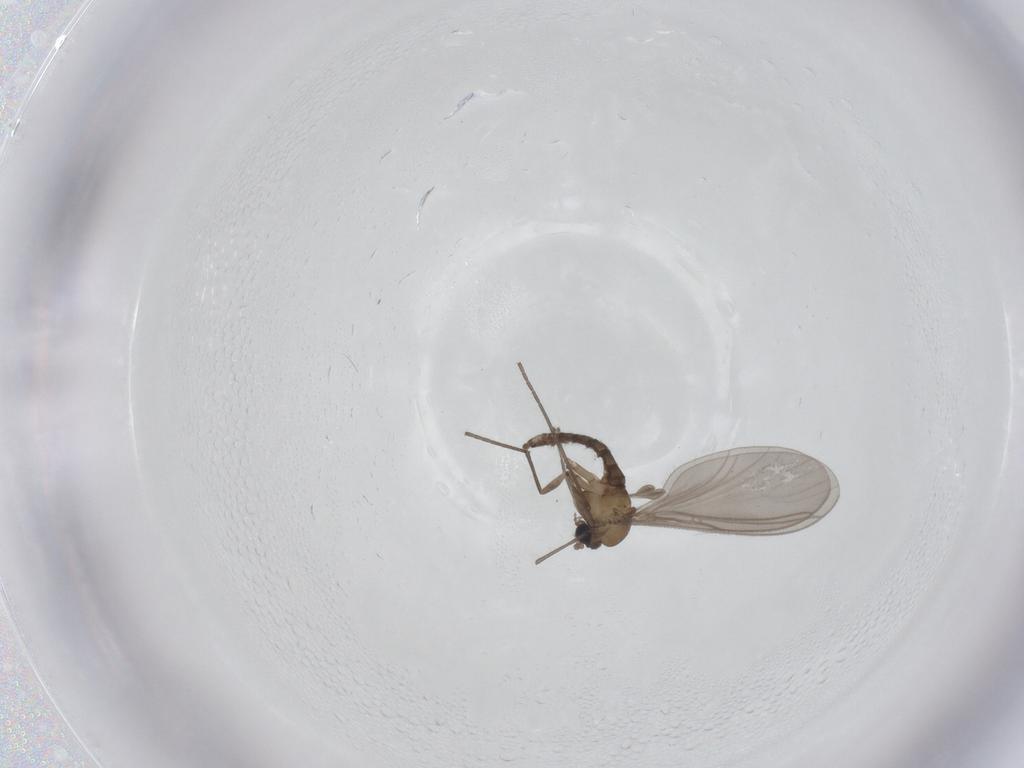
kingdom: Animalia
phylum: Arthropoda
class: Insecta
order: Diptera
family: Sciaridae
